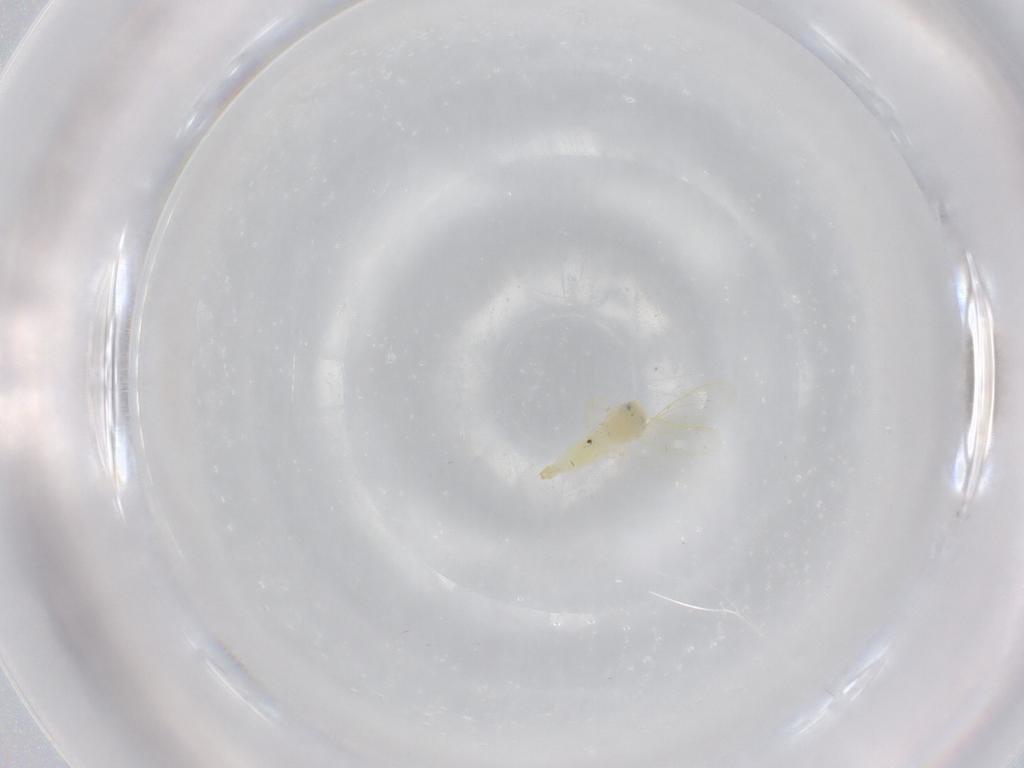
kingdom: Animalia
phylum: Arthropoda
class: Insecta
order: Hemiptera
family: Aleyrodidae
